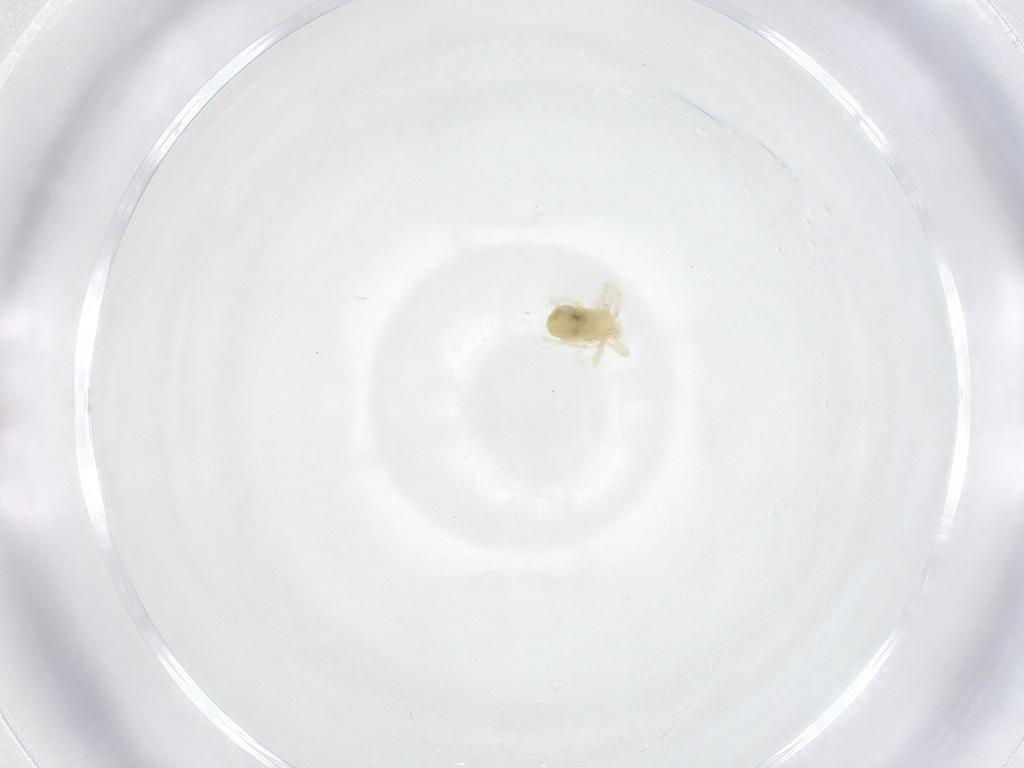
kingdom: Animalia
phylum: Arthropoda
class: Arachnida
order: Trombidiformes
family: Anystidae
